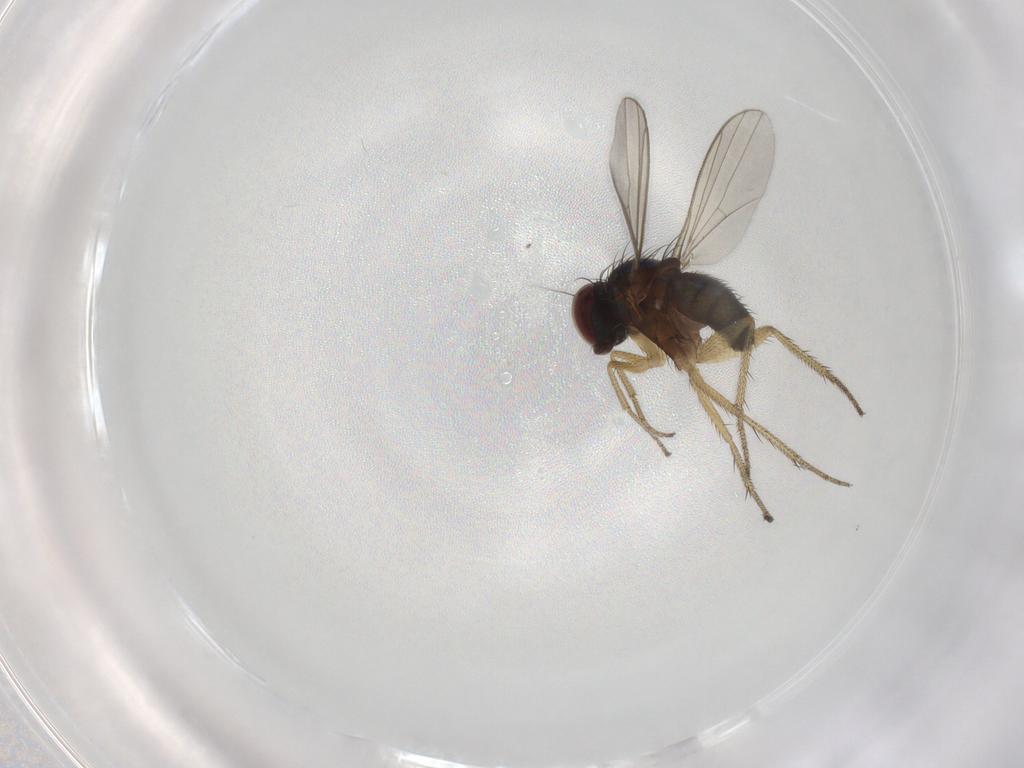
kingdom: Animalia
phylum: Arthropoda
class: Insecta
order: Diptera
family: Dolichopodidae
